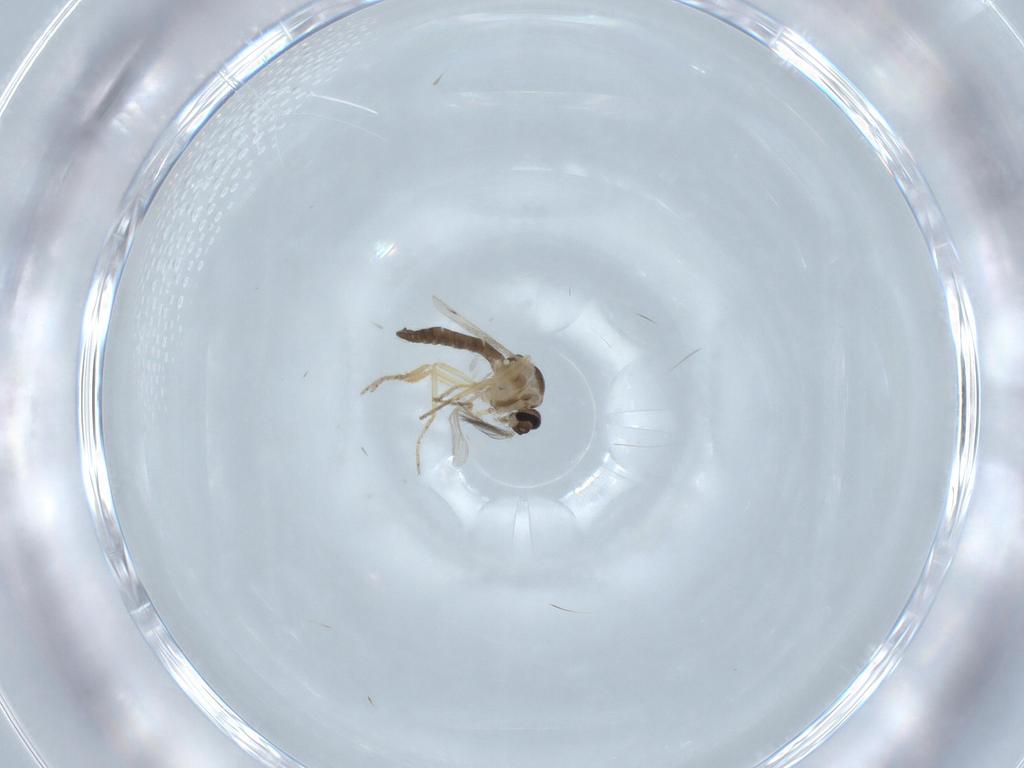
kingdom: Animalia
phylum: Arthropoda
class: Insecta
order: Diptera
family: Ceratopogonidae
